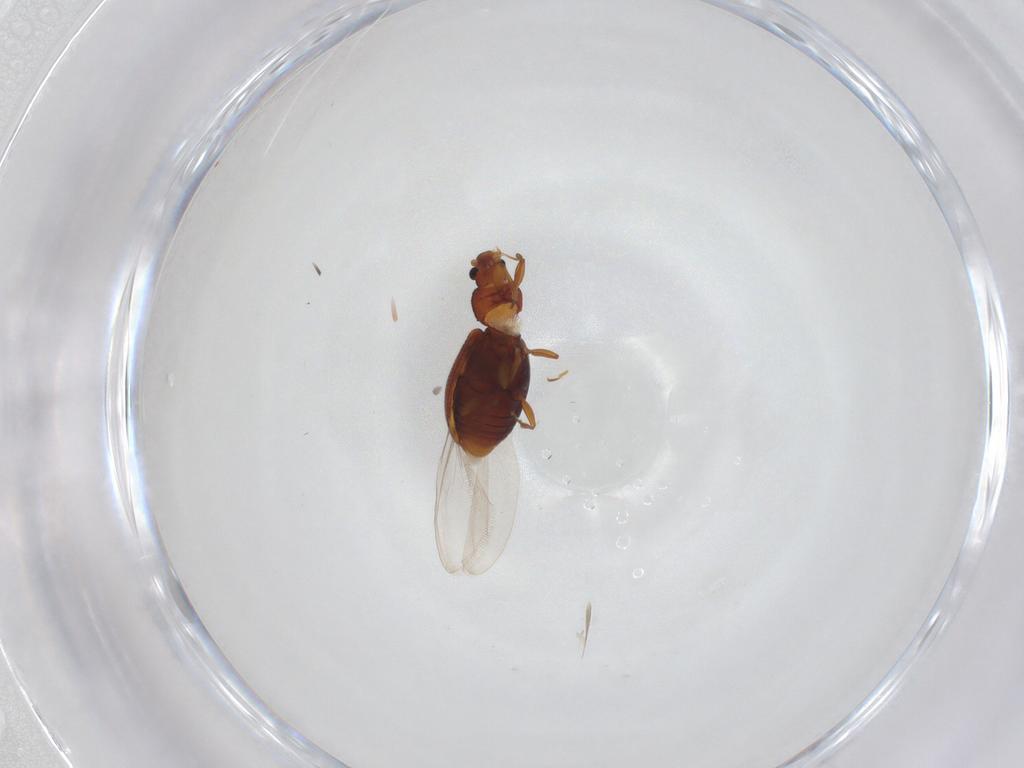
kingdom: Animalia
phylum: Arthropoda
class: Insecta
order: Coleoptera
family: Latridiidae
